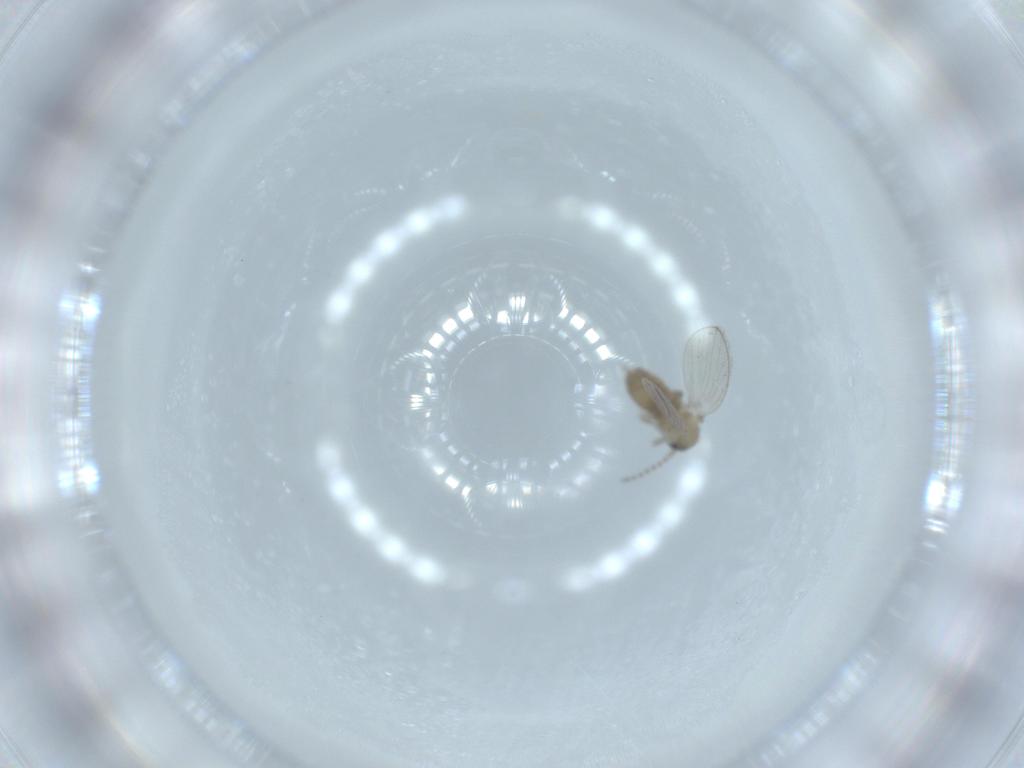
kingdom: Animalia
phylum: Arthropoda
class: Insecta
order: Diptera
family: Psychodidae
